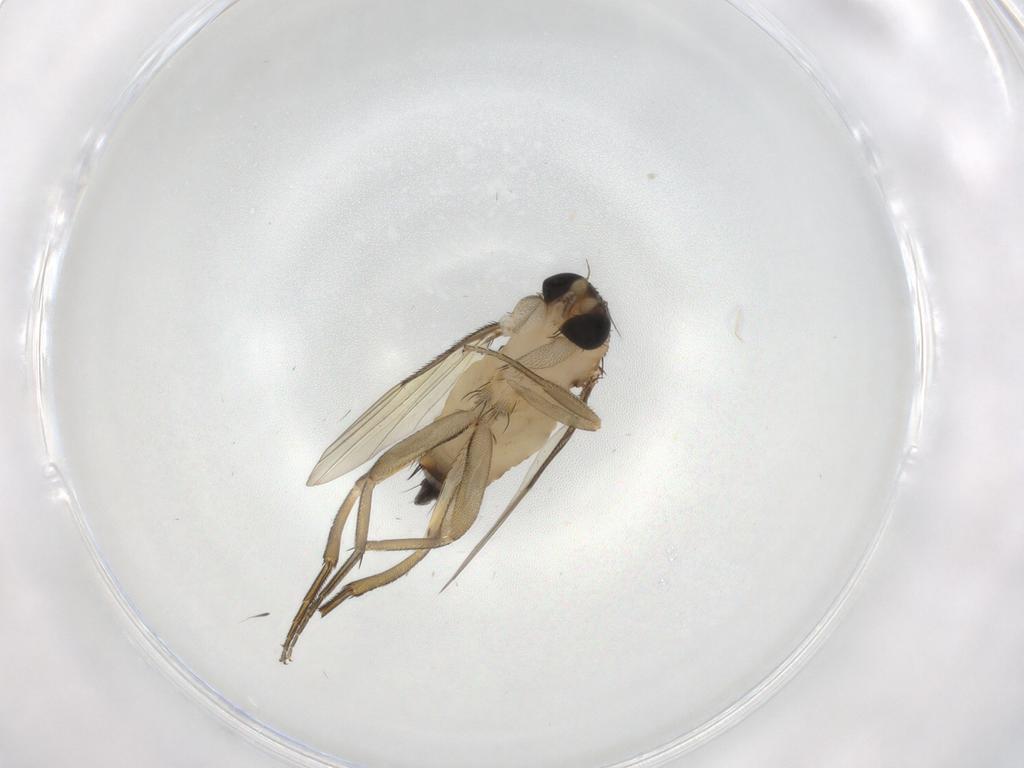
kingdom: Animalia
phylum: Arthropoda
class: Insecta
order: Diptera
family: Phoridae
